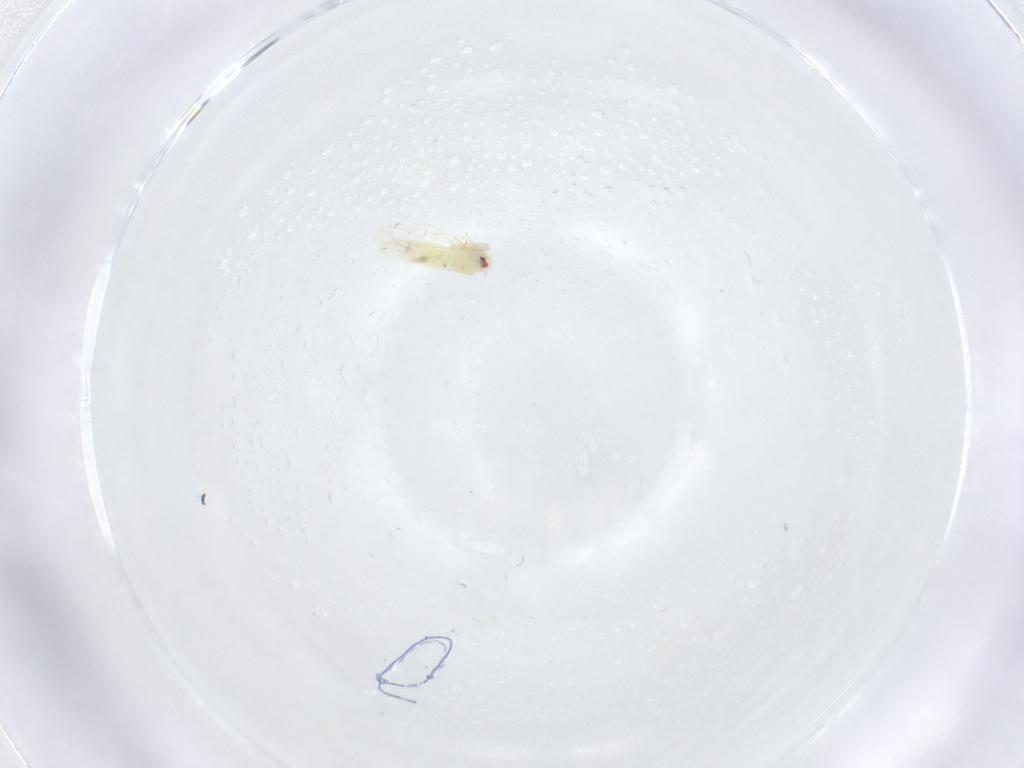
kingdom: Animalia
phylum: Arthropoda
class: Insecta
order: Hemiptera
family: Aleyrodidae
